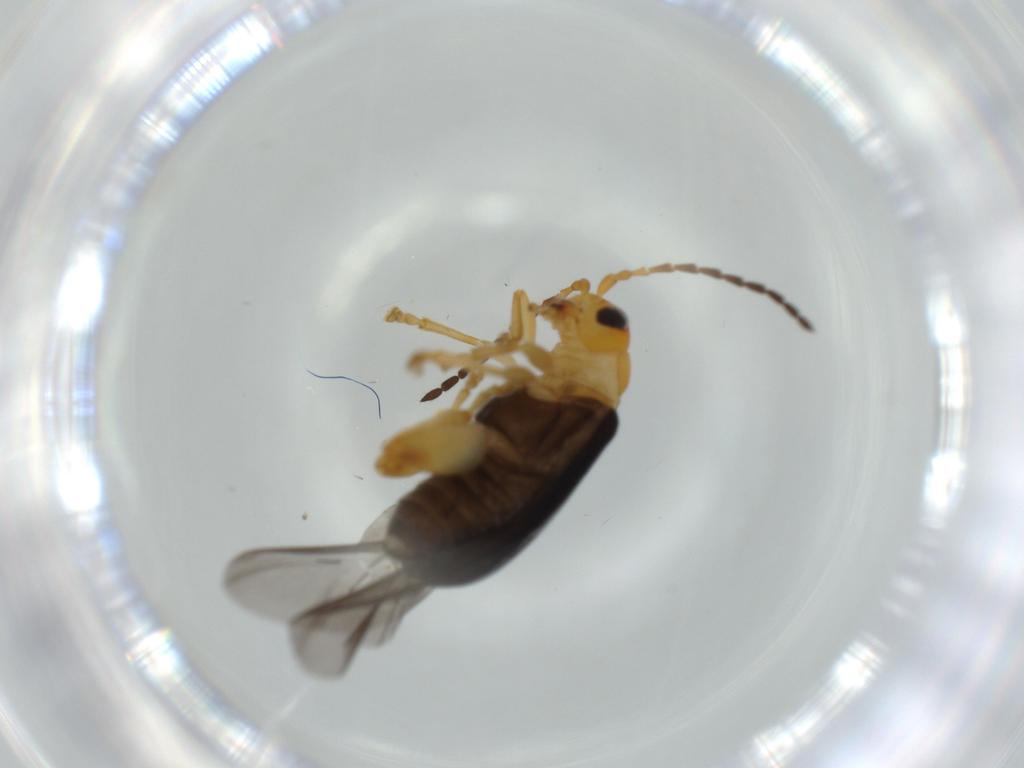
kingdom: Animalia
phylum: Arthropoda
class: Insecta
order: Coleoptera
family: Chrysomelidae
